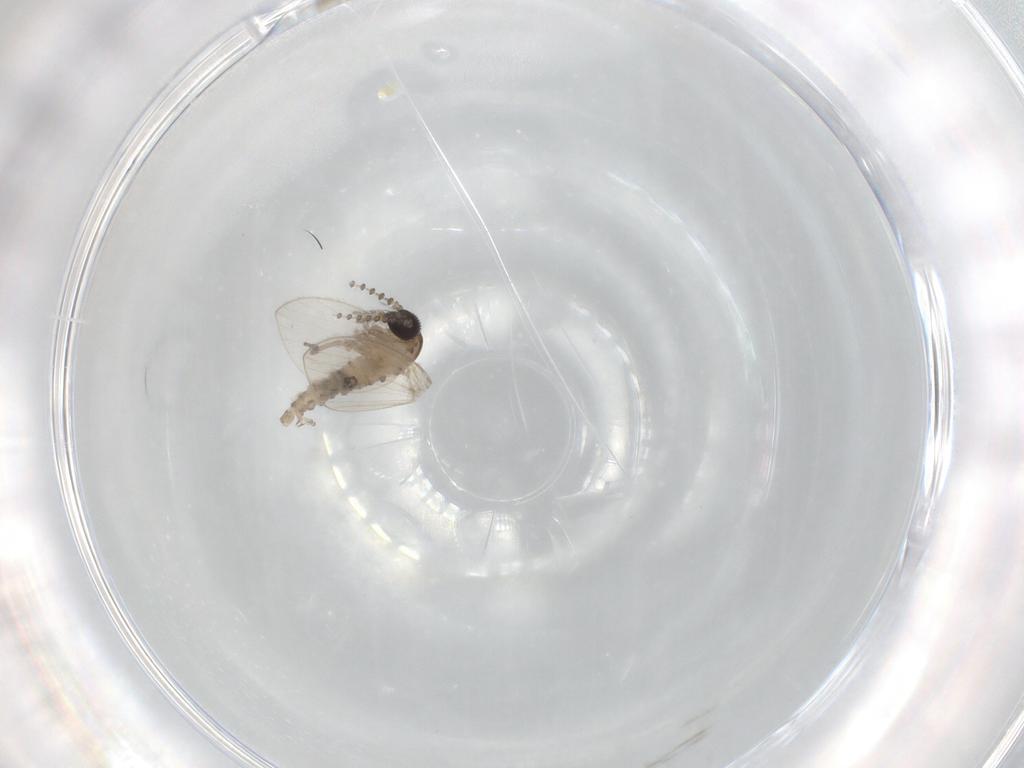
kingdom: Animalia
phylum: Arthropoda
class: Insecta
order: Diptera
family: Psychodidae
